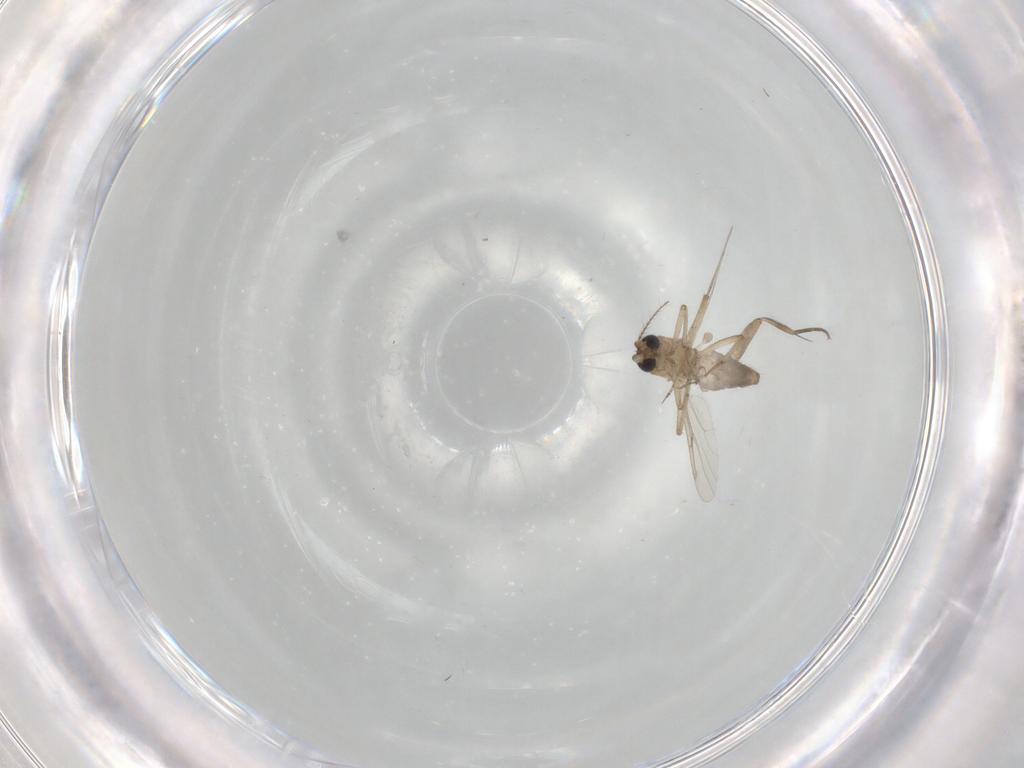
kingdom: Animalia
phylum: Arthropoda
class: Insecta
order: Diptera
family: Phoridae
